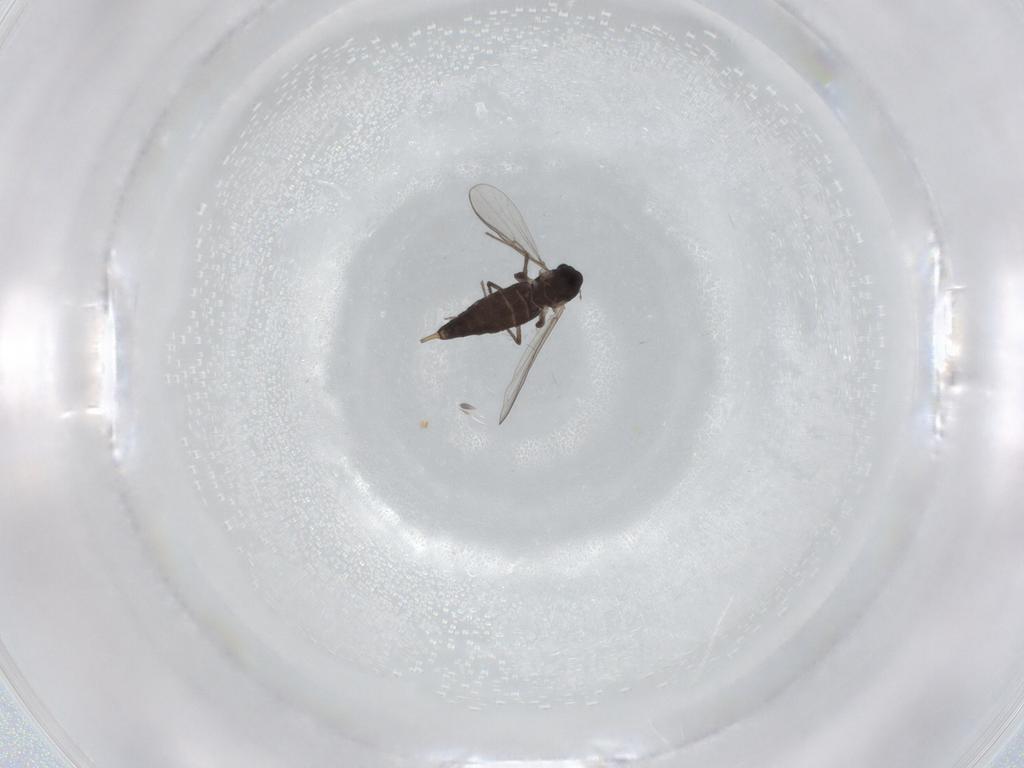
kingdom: Animalia
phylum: Arthropoda
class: Insecta
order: Diptera
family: Chironomidae
